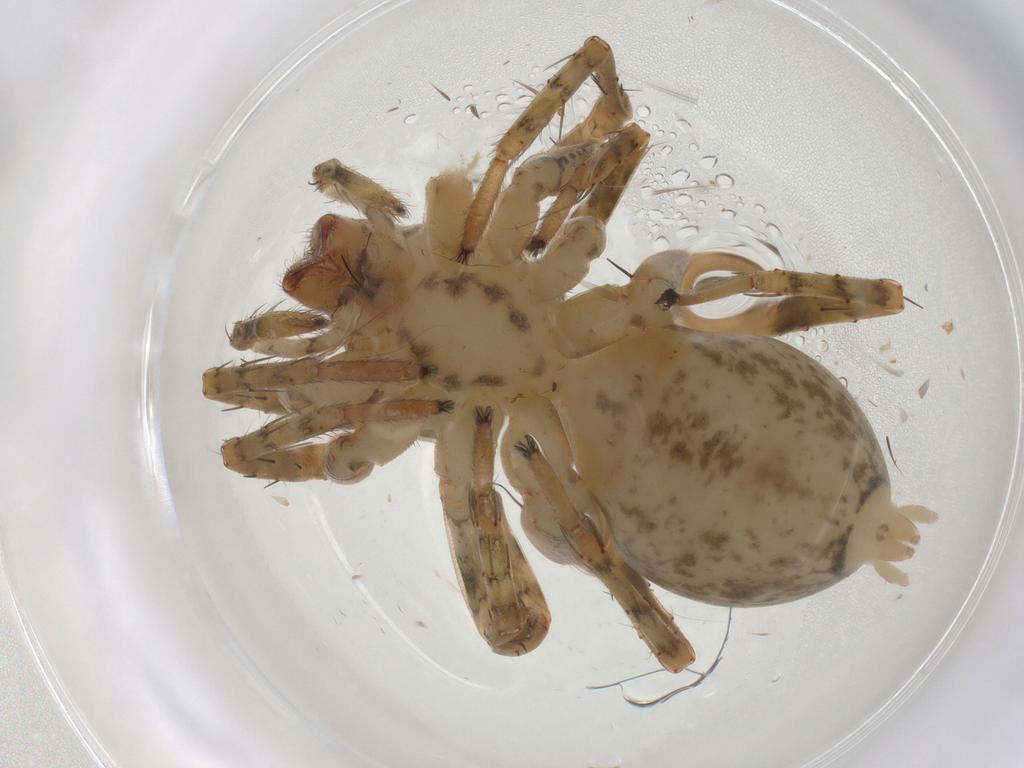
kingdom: Animalia
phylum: Arthropoda
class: Arachnida
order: Araneae
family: Anyphaenidae
